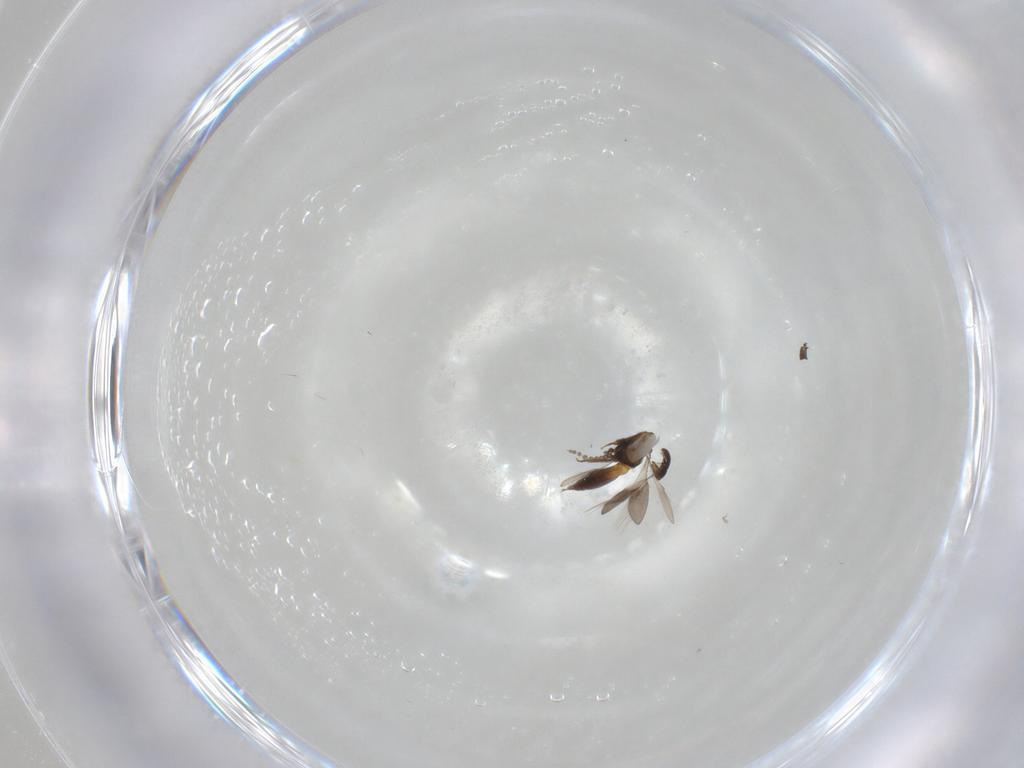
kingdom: Animalia
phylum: Arthropoda
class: Insecta
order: Hymenoptera
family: Scelionidae
